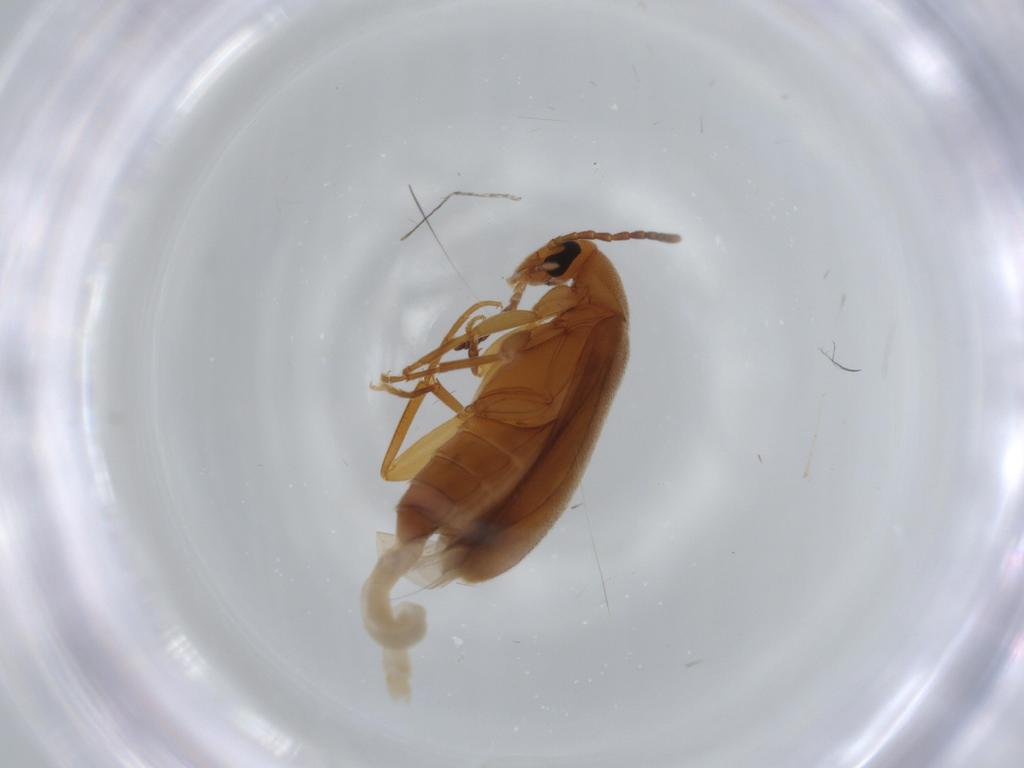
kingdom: Animalia
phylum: Arthropoda
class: Insecta
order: Coleoptera
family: Scraptiidae
